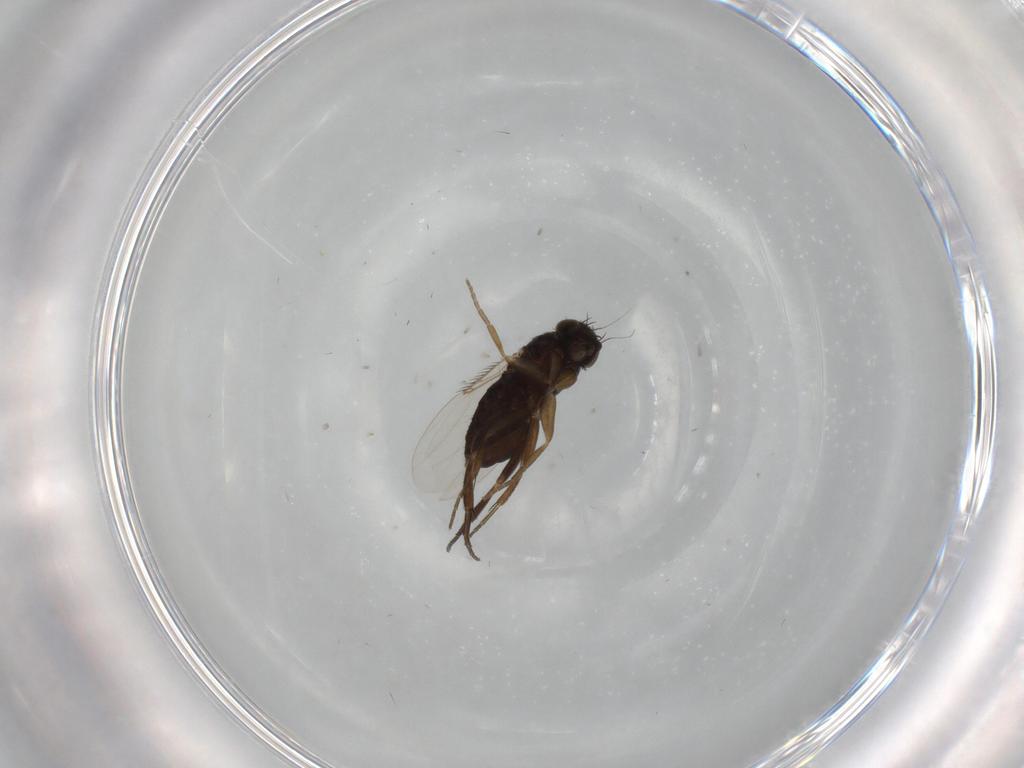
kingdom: Animalia
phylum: Arthropoda
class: Insecta
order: Diptera
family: Phoridae
